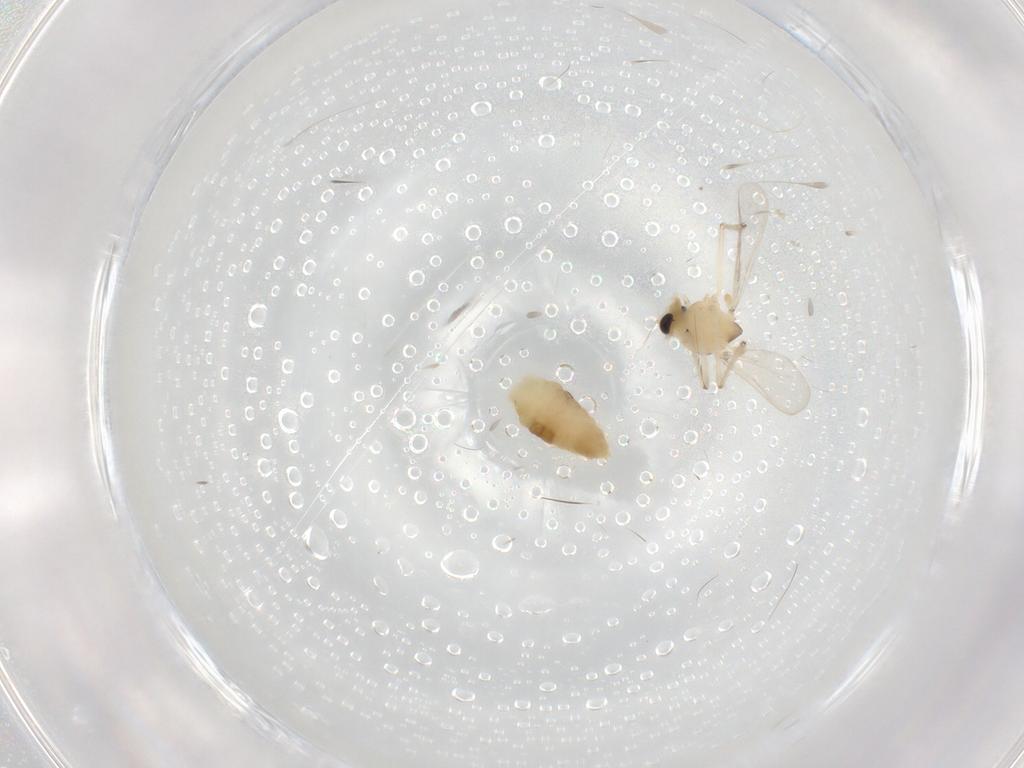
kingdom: Animalia
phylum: Arthropoda
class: Insecta
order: Diptera
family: Chironomidae
